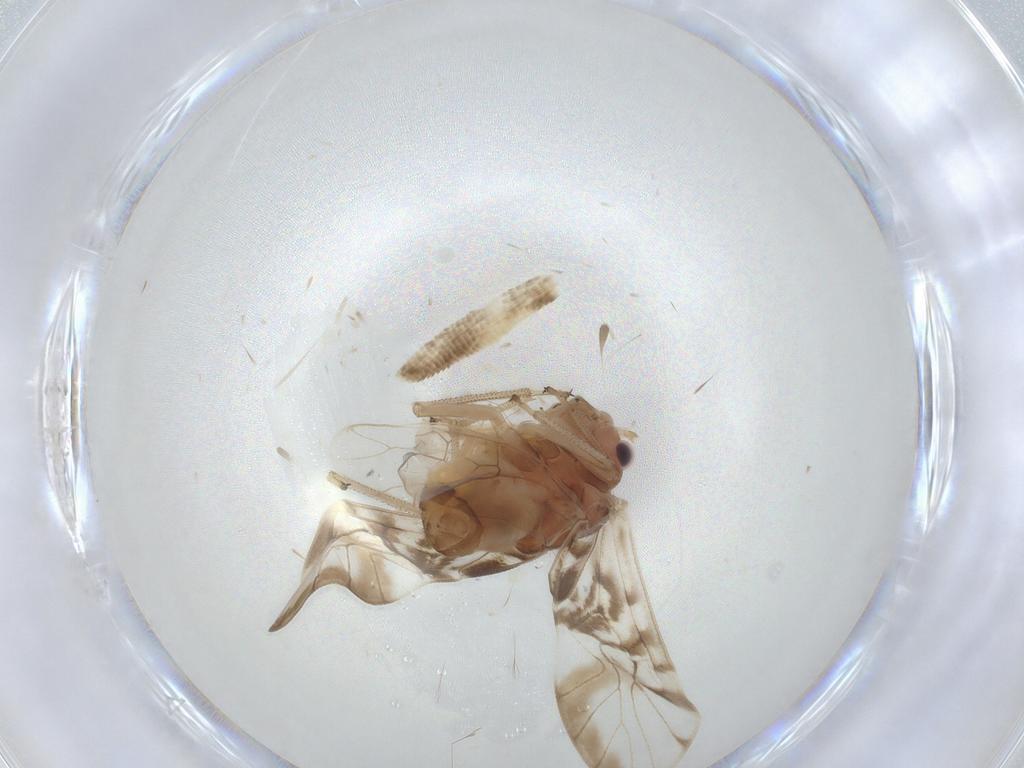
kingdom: Animalia
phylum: Arthropoda
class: Insecta
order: Psocodea
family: Amphipsocidae
